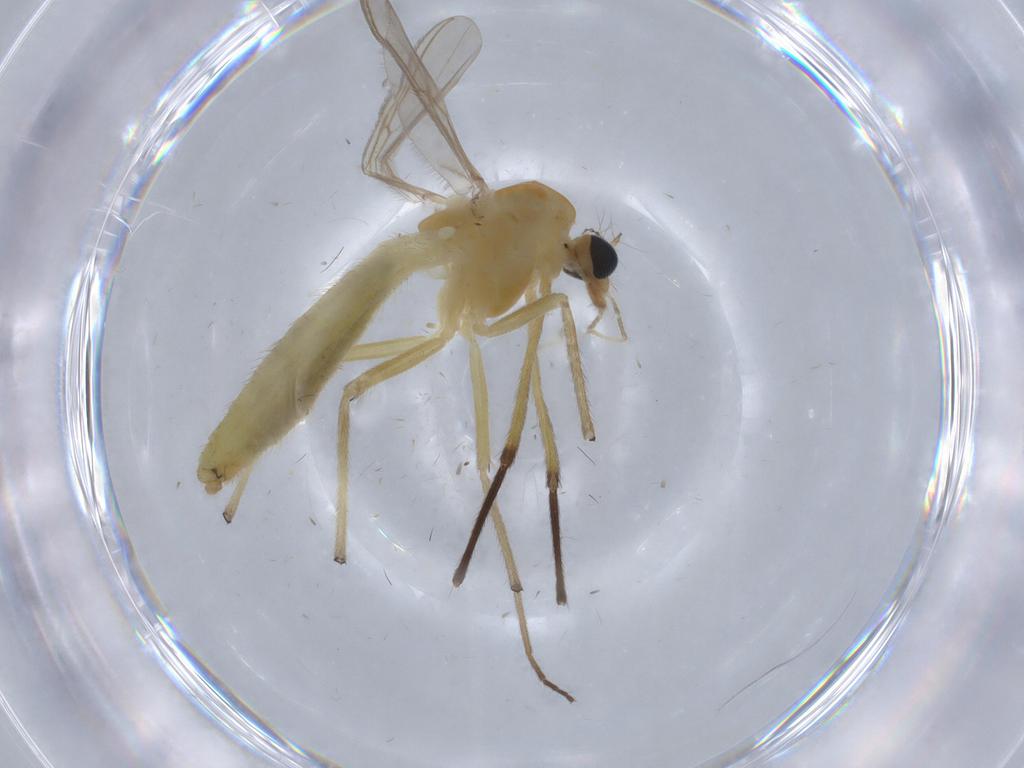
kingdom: Animalia
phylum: Arthropoda
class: Insecta
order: Diptera
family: Chironomidae
